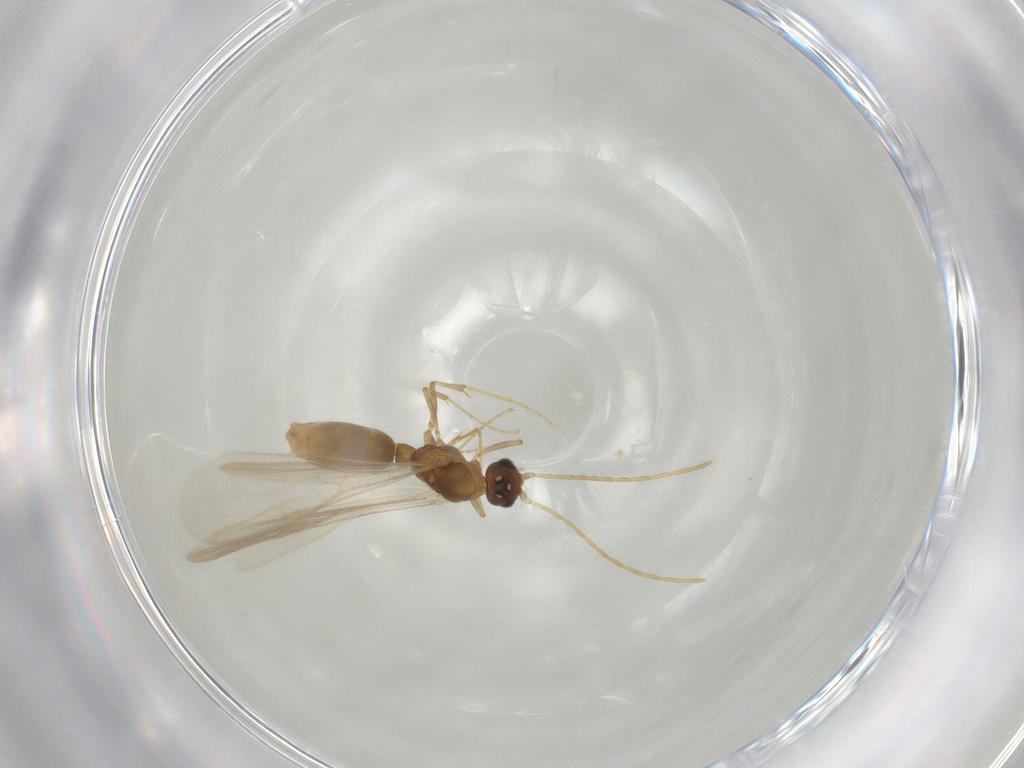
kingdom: Animalia
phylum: Arthropoda
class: Insecta
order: Hymenoptera
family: Formicidae
